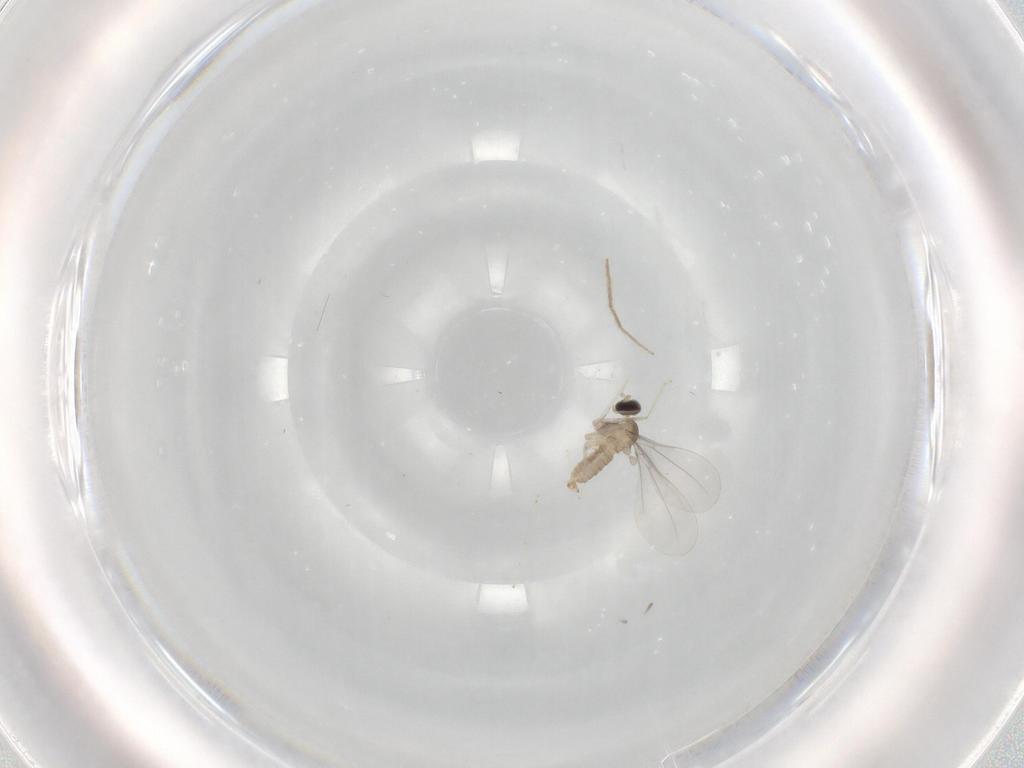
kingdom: Animalia
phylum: Arthropoda
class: Insecta
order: Diptera
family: Cecidomyiidae
